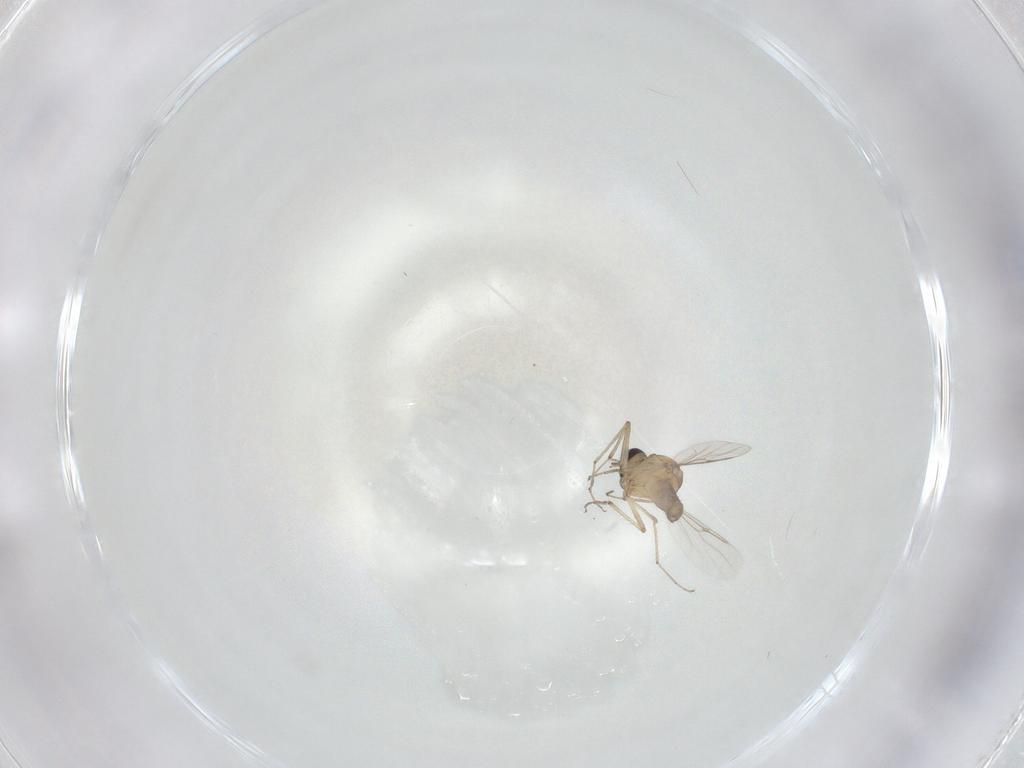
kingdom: Animalia
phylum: Arthropoda
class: Insecta
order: Diptera
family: Ceratopogonidae
